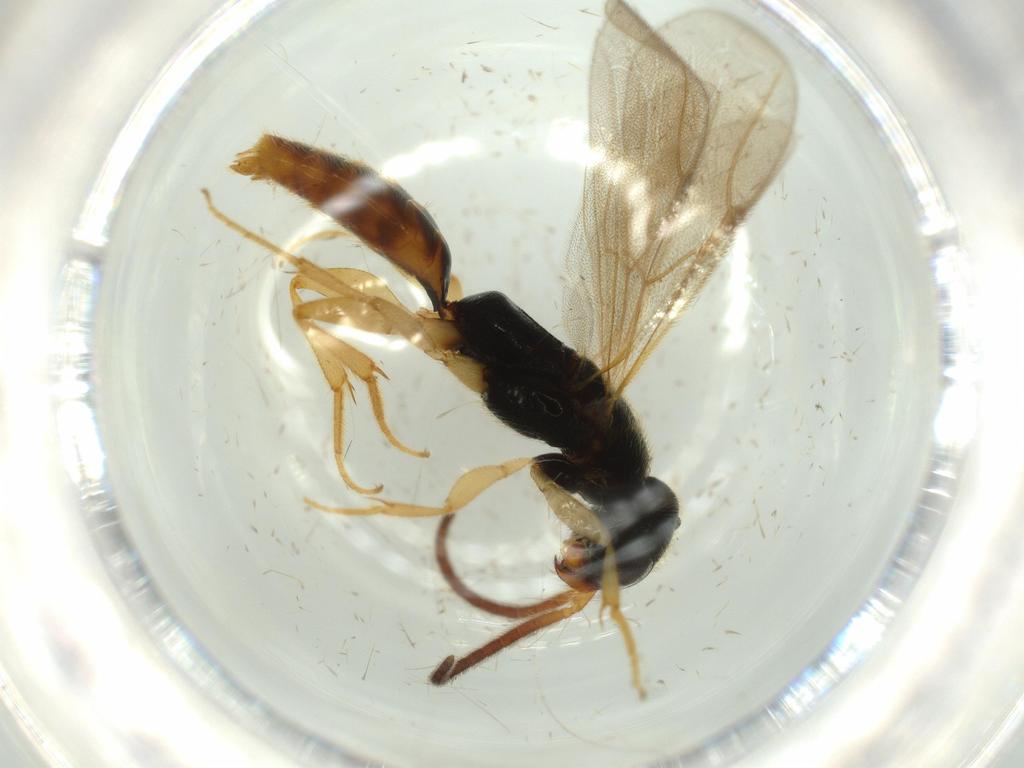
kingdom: Animalia
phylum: Arthropoda
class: Insecta
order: Hymenoptera
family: Bethylidae
